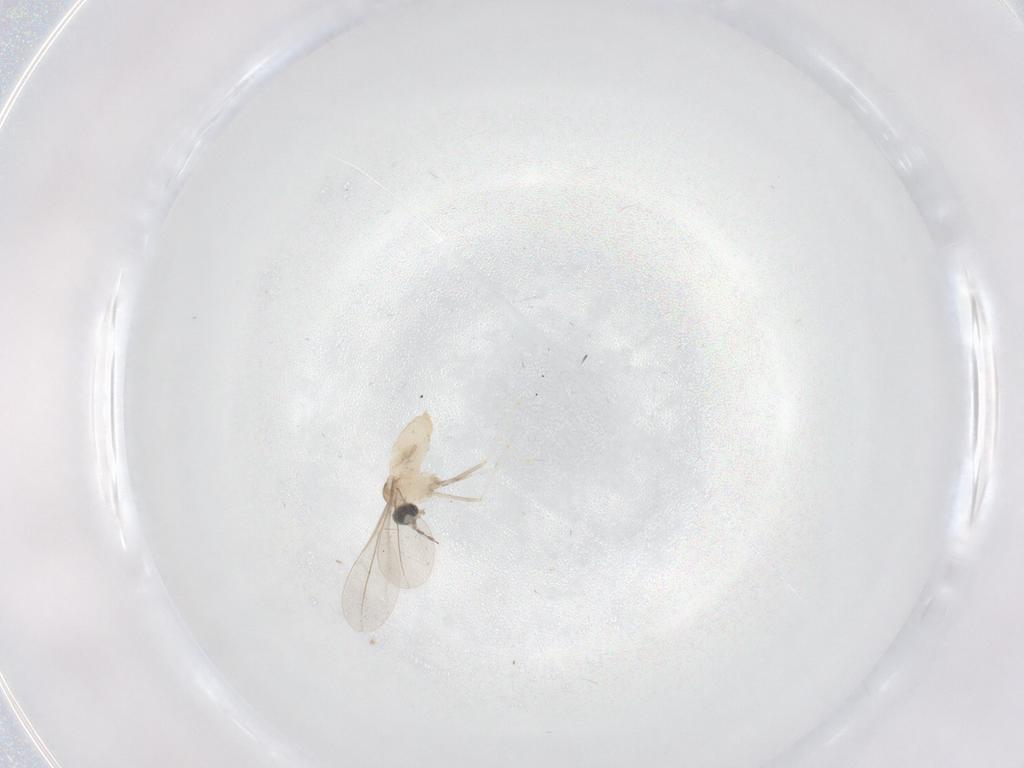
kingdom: Animalia
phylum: Arthropoda
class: Insecta
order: Diptera
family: Cecidomyiidae
